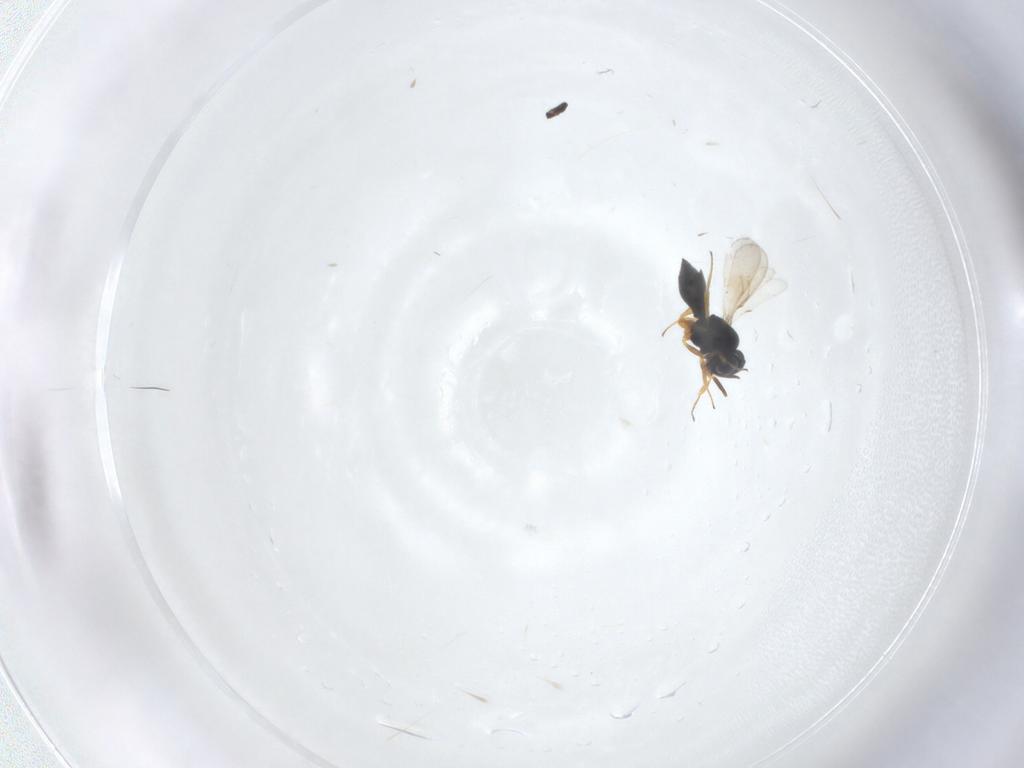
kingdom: Animalia
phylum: Arthropoda
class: Insecta
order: Hymenoptera
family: Scelionidae
